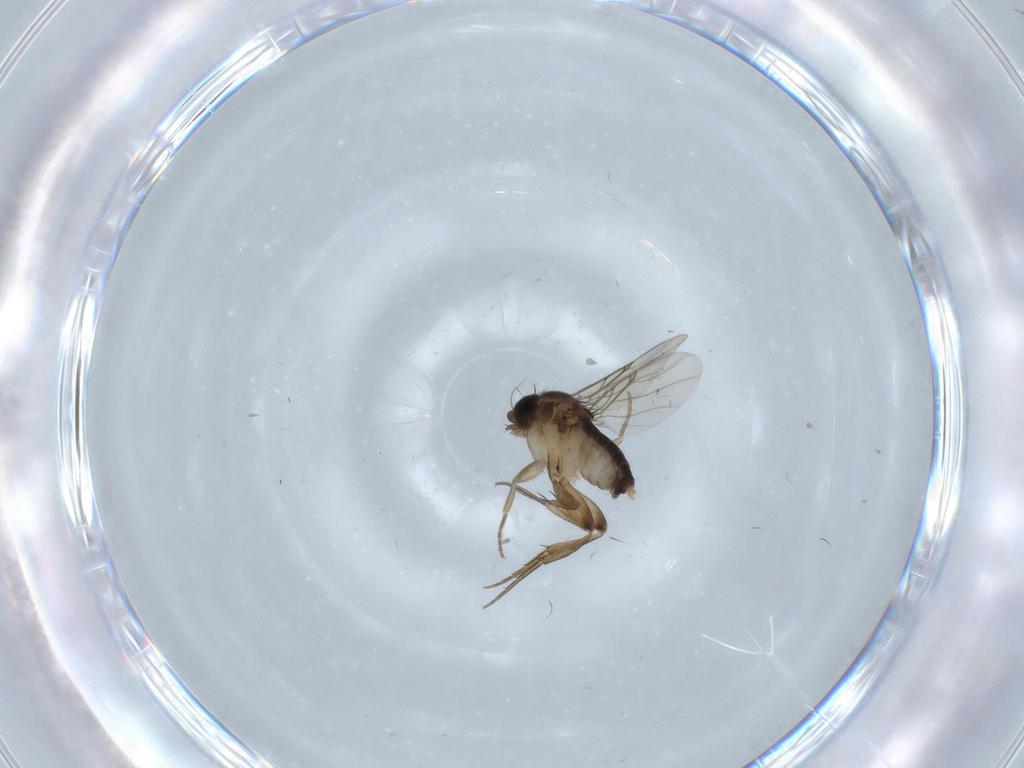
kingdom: Animalia
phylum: Arthropoda
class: Insecta
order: Diptera
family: Phoridae
